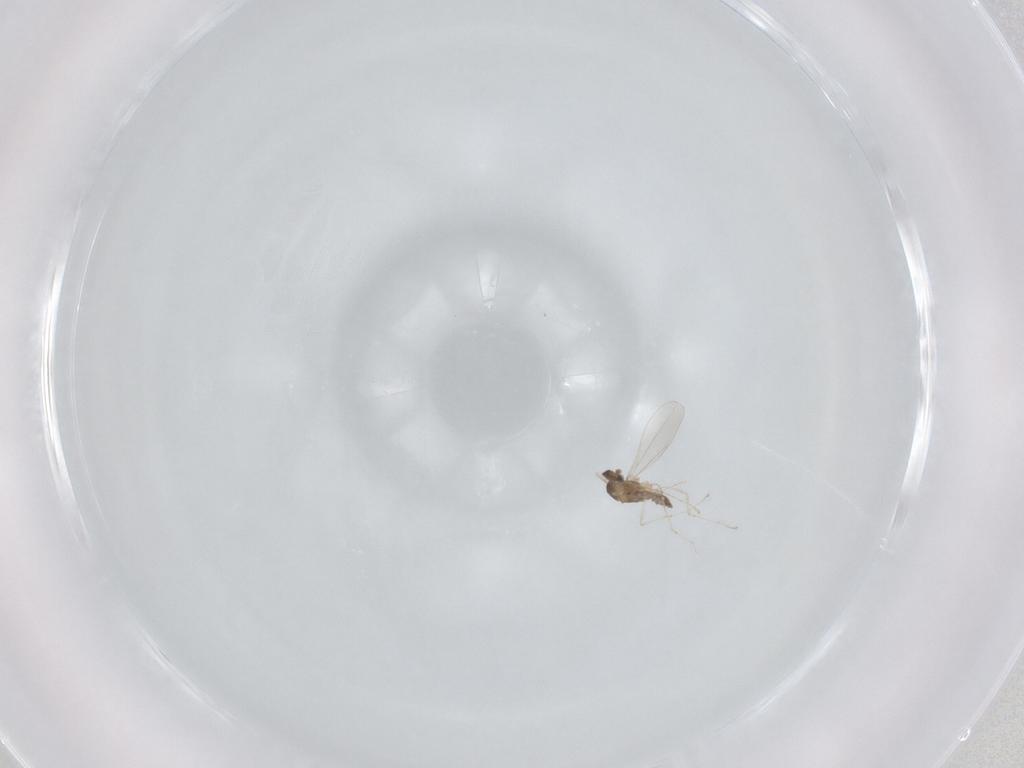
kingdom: Animalia
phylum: Arthropoda
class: Insecta
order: Diptera
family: Cecidomyiidae
